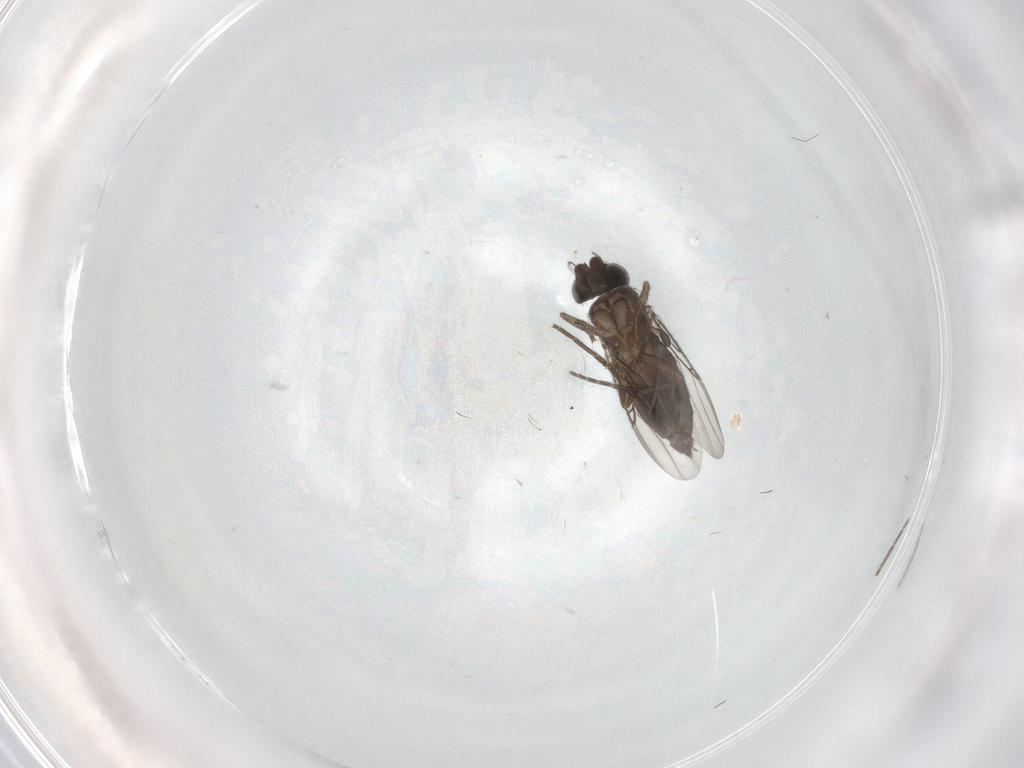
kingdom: Animalia
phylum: Arthropoda
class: Insecta
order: Diptera
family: Phoridae
